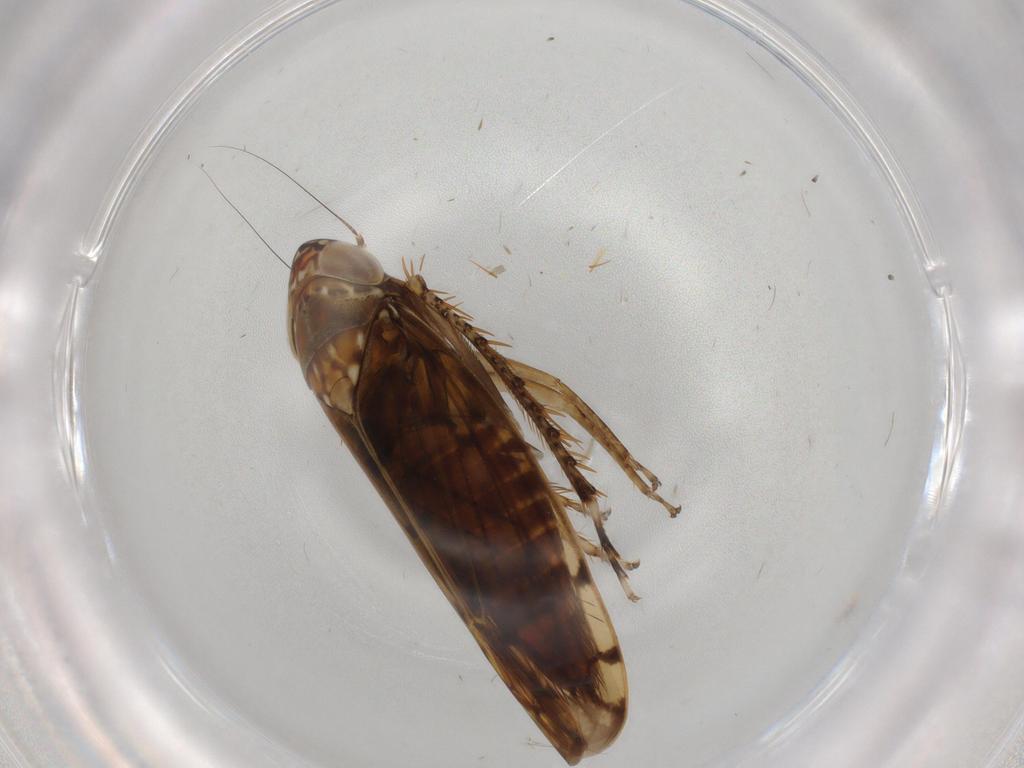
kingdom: Animalia
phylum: Arthropoda
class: Insecta
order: Hemiptera
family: Cicadellidae
